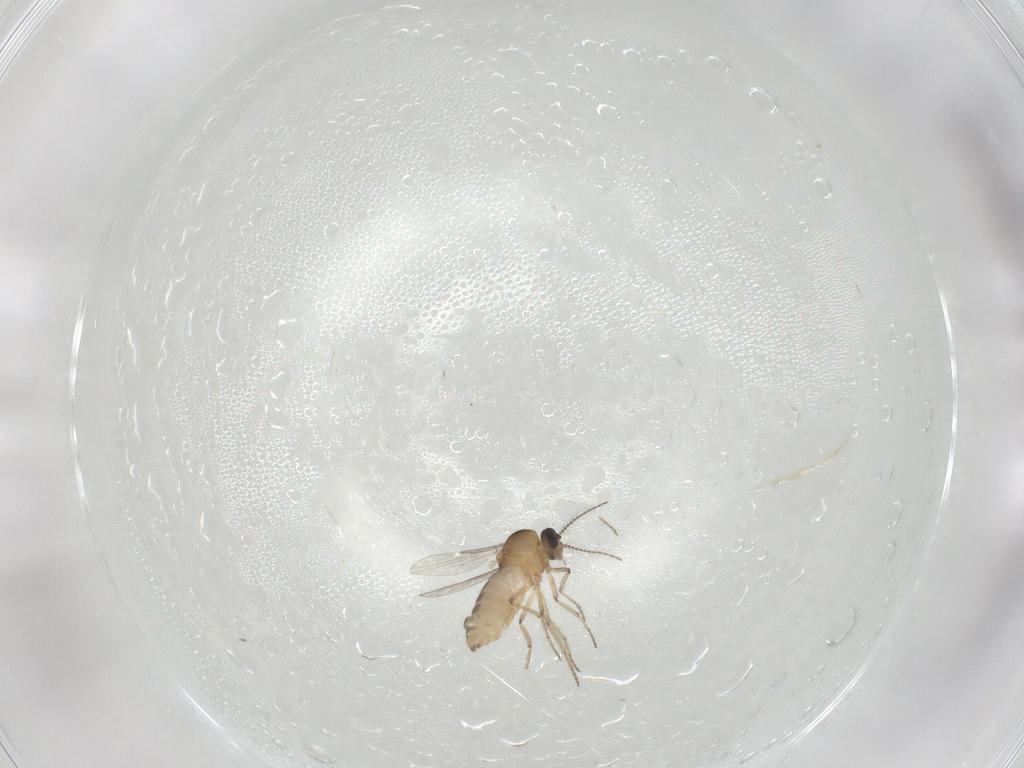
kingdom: Animalia
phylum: Arthropoda
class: Insecta
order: Diptera
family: Ceratopogonidae
